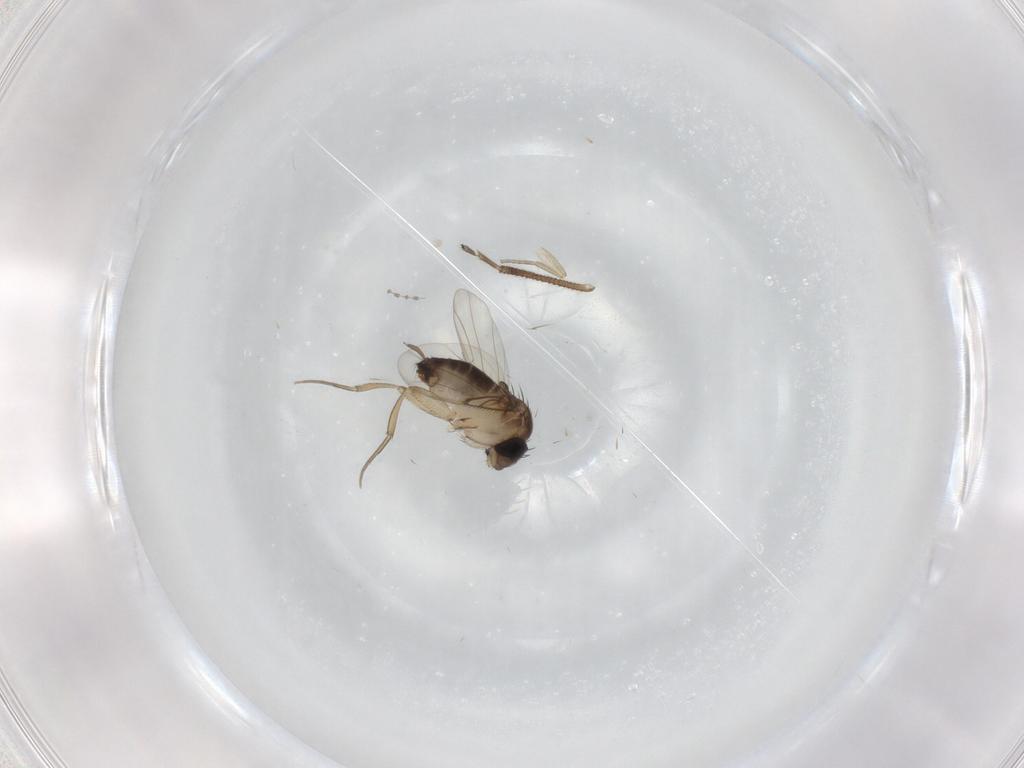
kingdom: Animalia
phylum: Arthropoda
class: Insecta
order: Diptera
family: Cecidomyiidae
